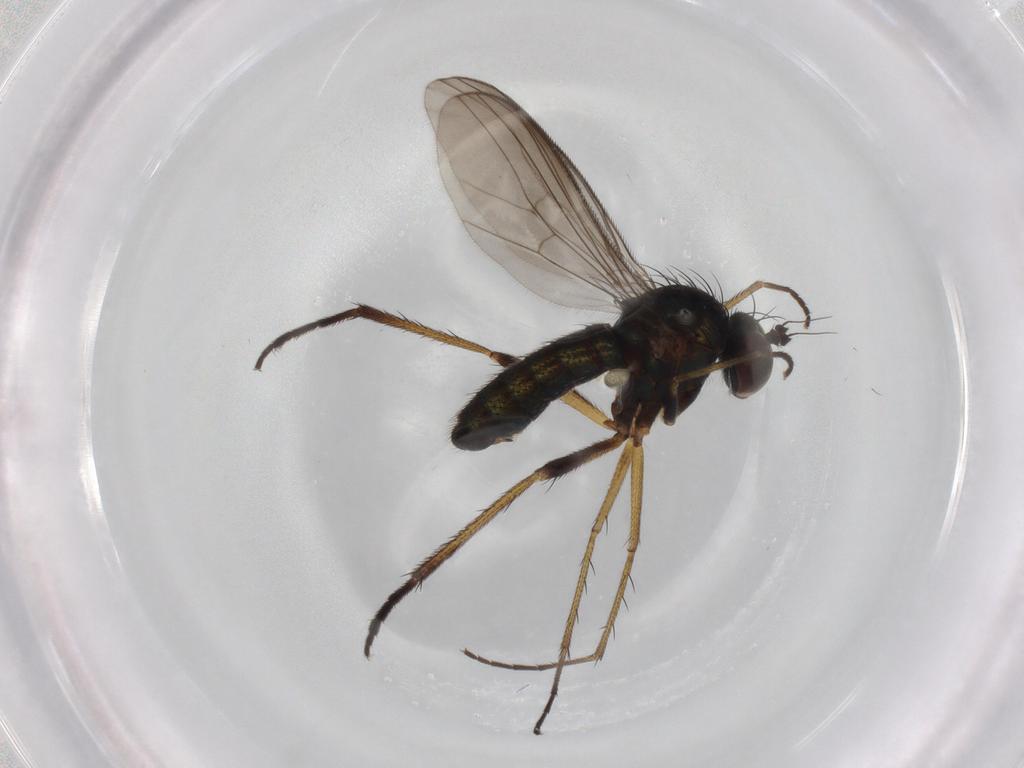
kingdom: Animalia
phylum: Arthropoda
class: Insecta
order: Diptera
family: Dolichopodidae
